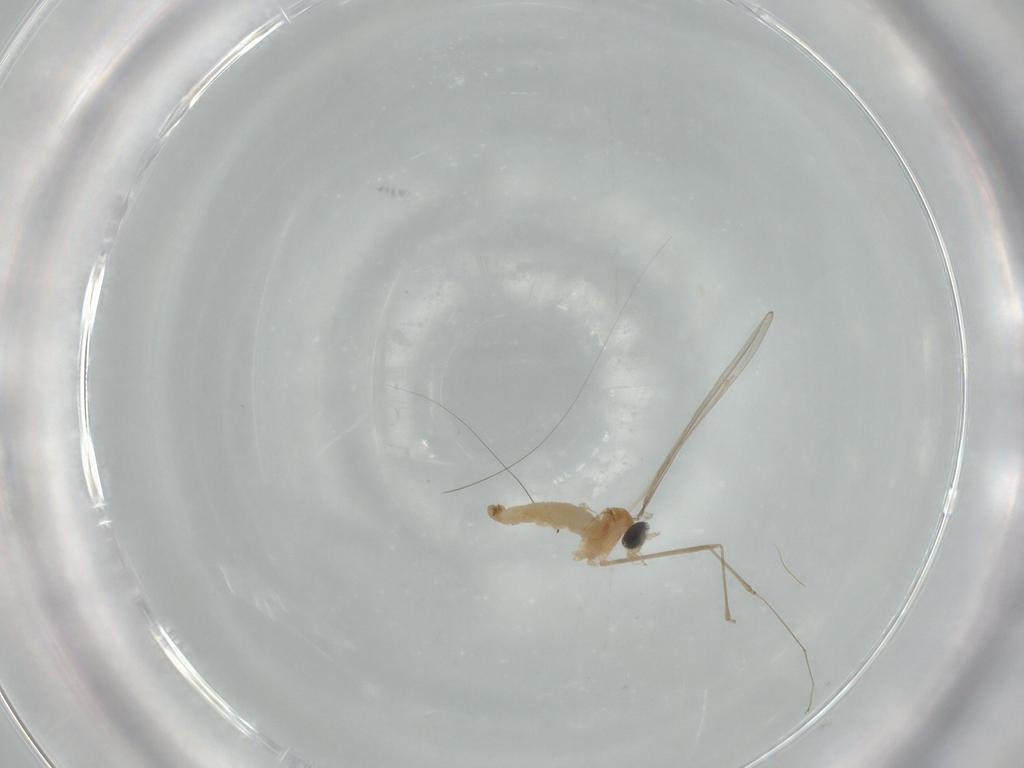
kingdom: Animalia
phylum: Arthropoda
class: Insecta
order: Diptera
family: Cecidomyiidae
